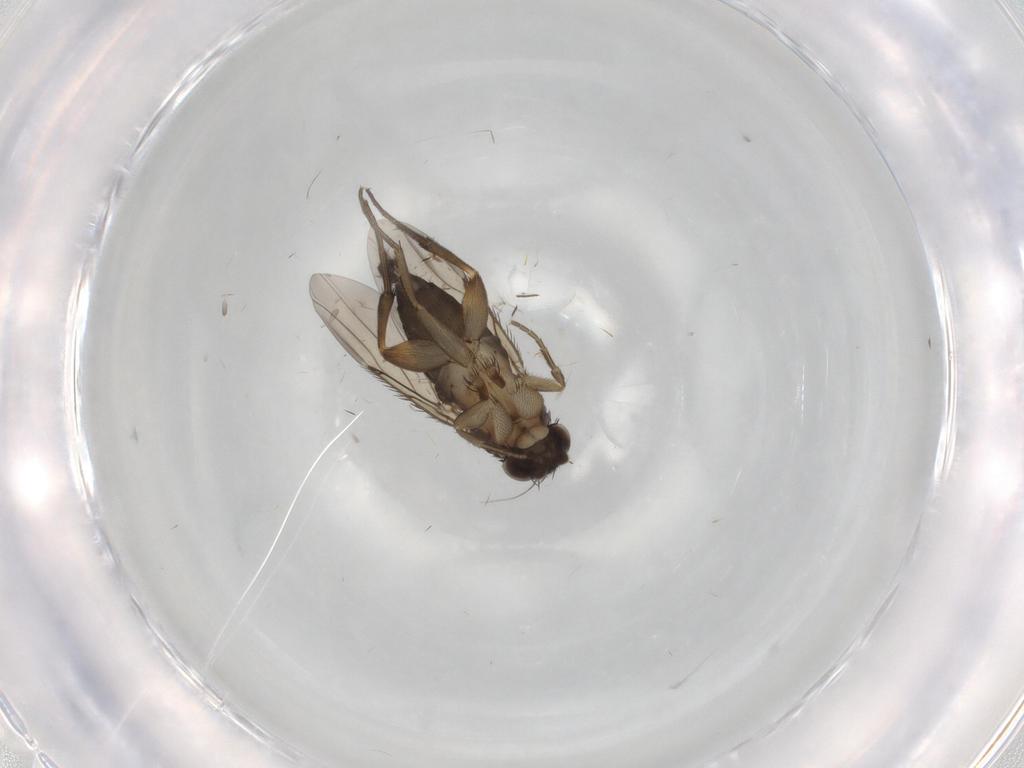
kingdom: Animalia
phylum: Arthropoda
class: Insecta
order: Diptera
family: Phoridae
